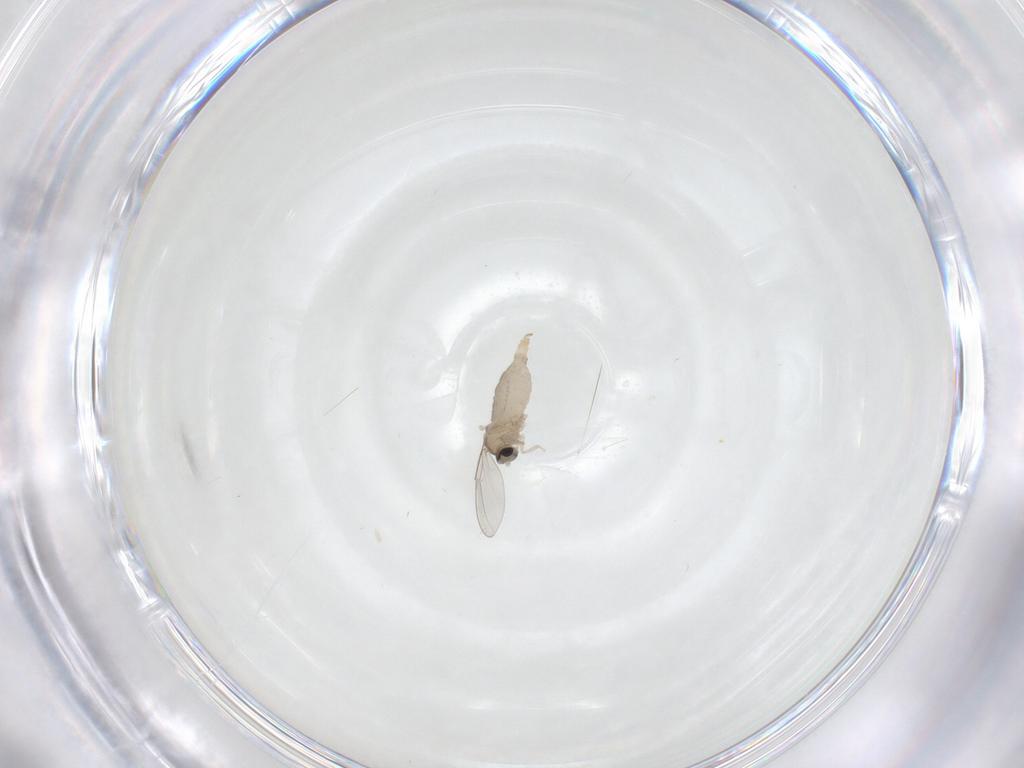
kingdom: Animalia
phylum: Arthropoda
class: Insecta
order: Diptera
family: Cecidomyiidae
